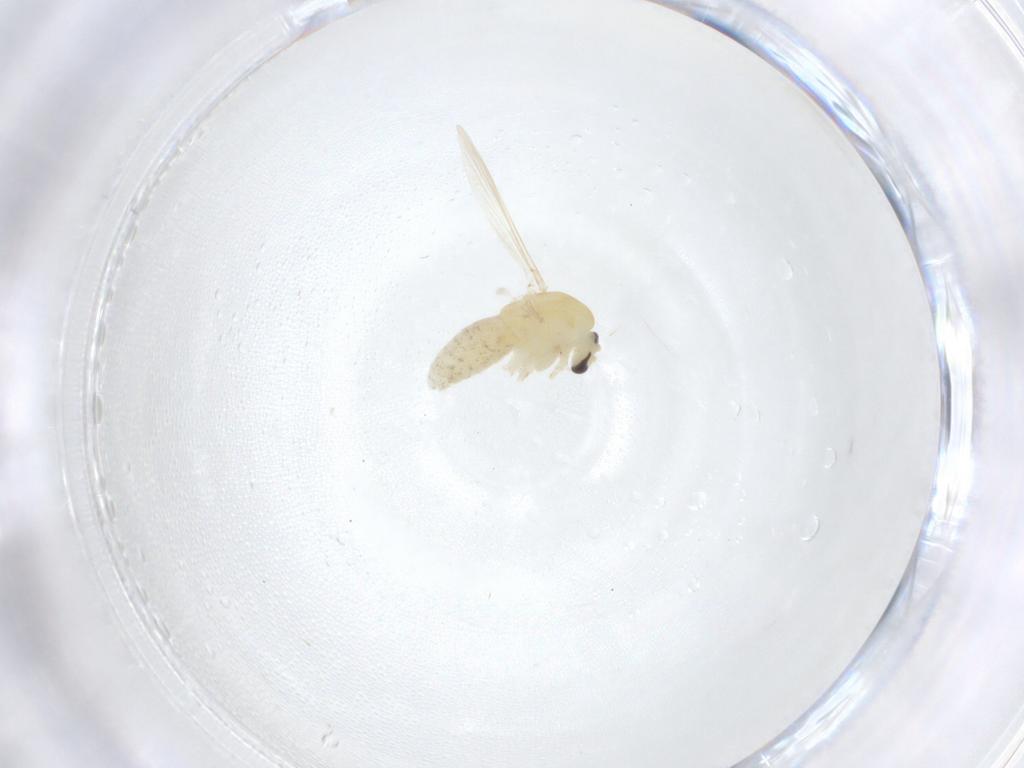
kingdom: Animalia
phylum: Arthropoda
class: Insecta
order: Diptera
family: Chironomidae
